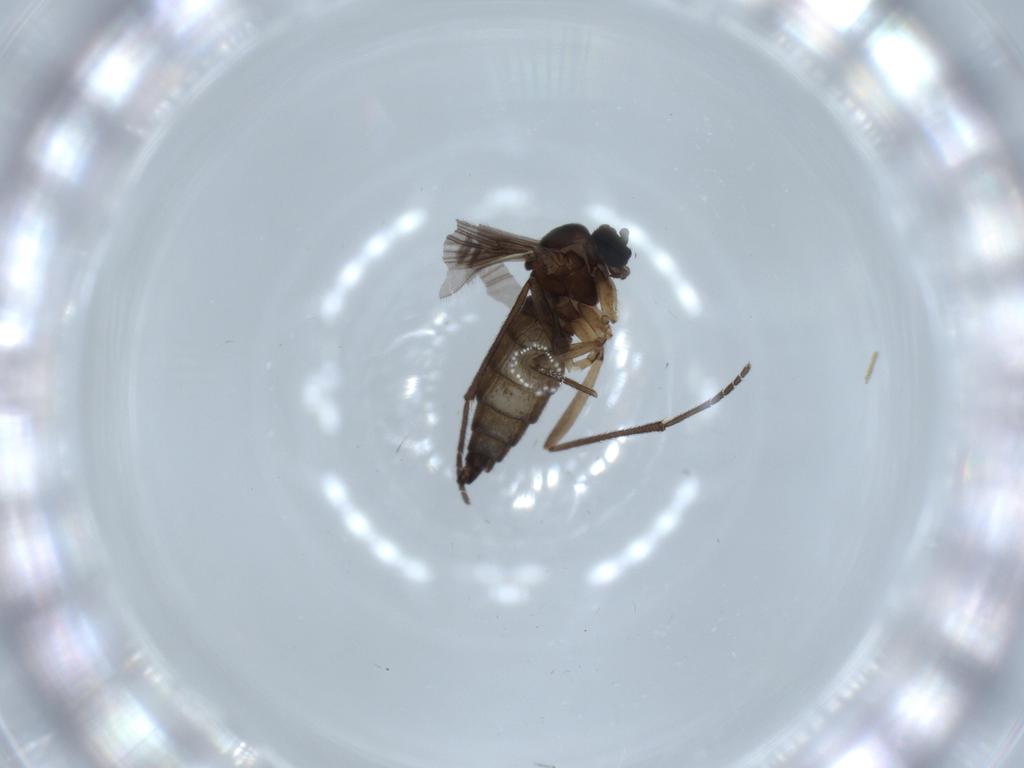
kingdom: Animalia
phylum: Arthropoda
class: Insecta
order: Diptera
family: Sciaridae
